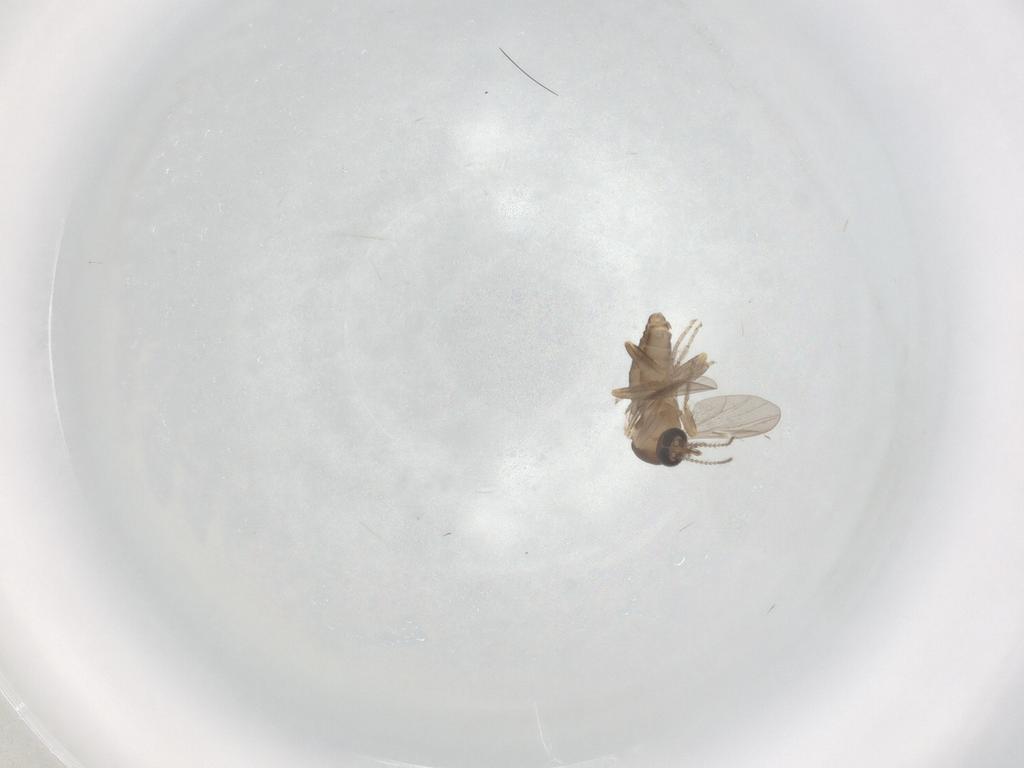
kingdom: Animalia
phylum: Arthropoda
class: Insecta
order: Diptera
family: Ceratopogonidae
